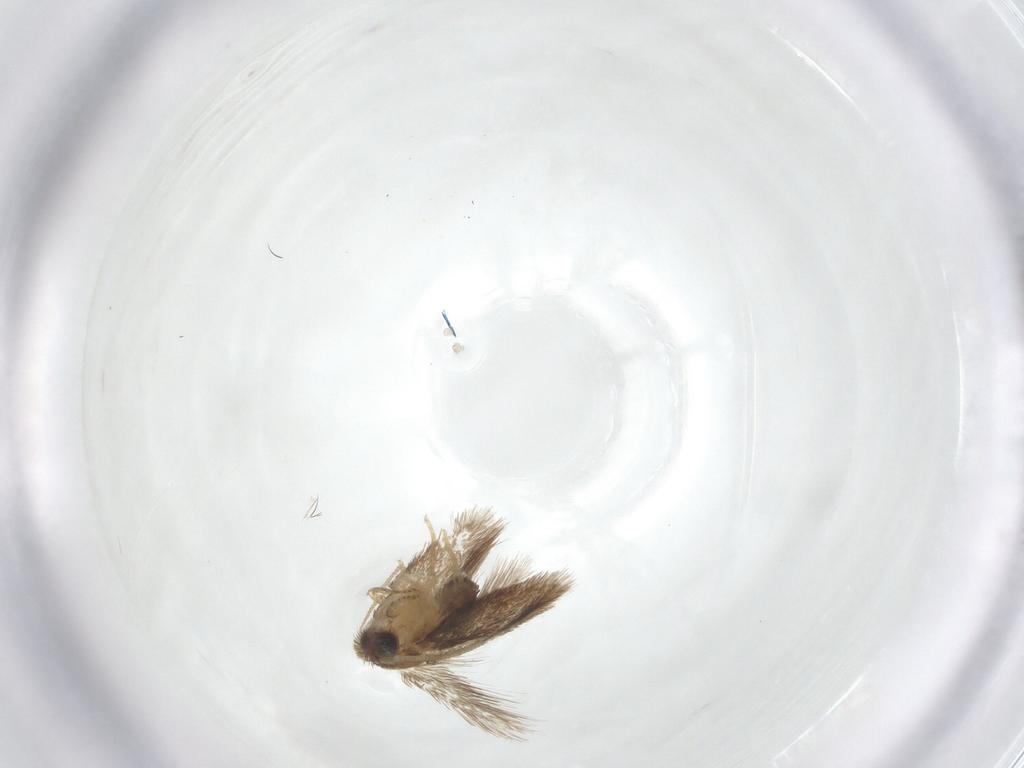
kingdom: Animalia
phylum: Arthropoda
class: Insecta
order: Lepidoptera
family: Nepticulidae
